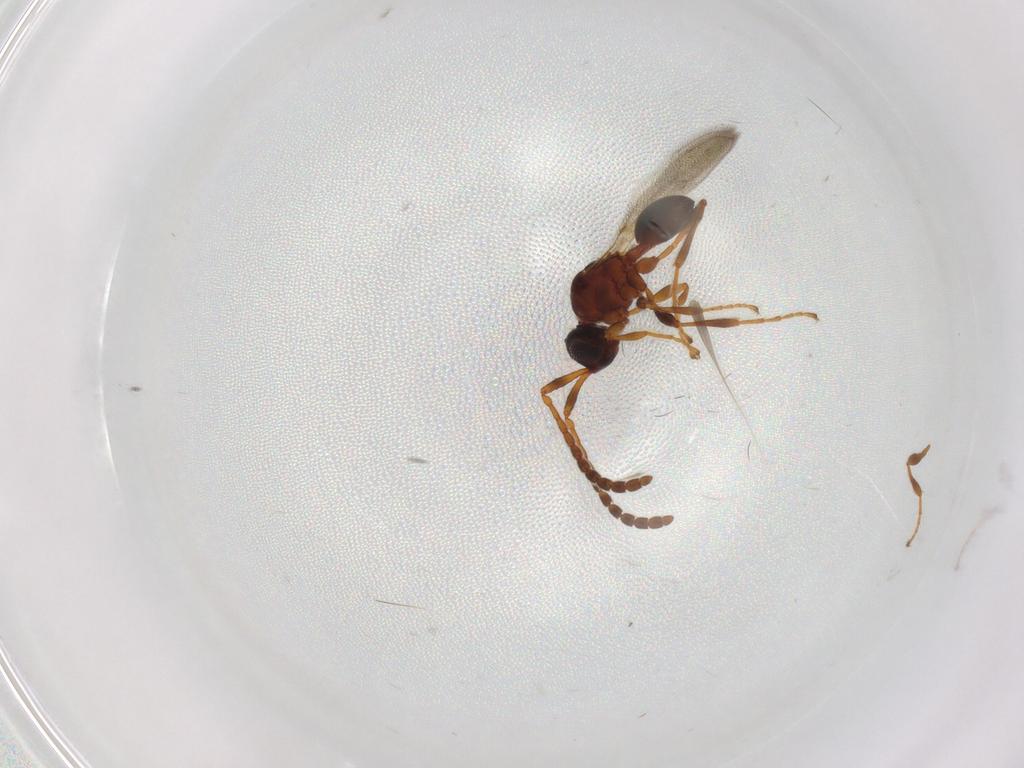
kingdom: Animalia
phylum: Arthropoda
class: Insecta
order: Hymenoptera
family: Diapriidae
